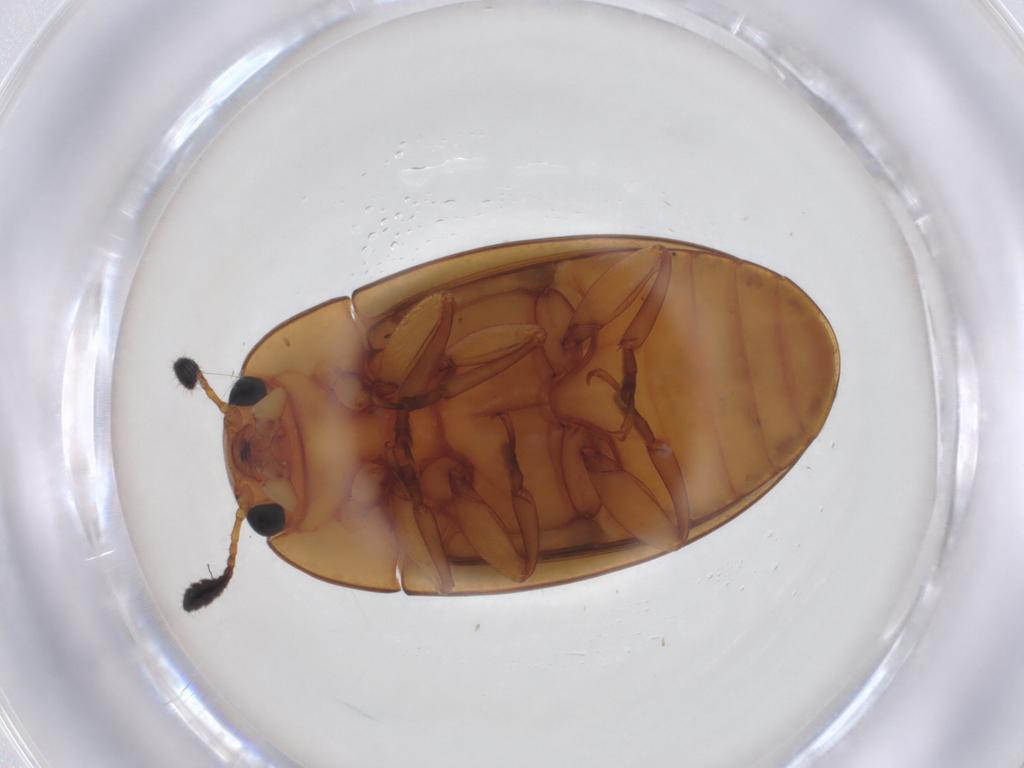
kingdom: Animalia
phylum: Arthropoda
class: Insecta
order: Coleoptera
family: Erotylidae
